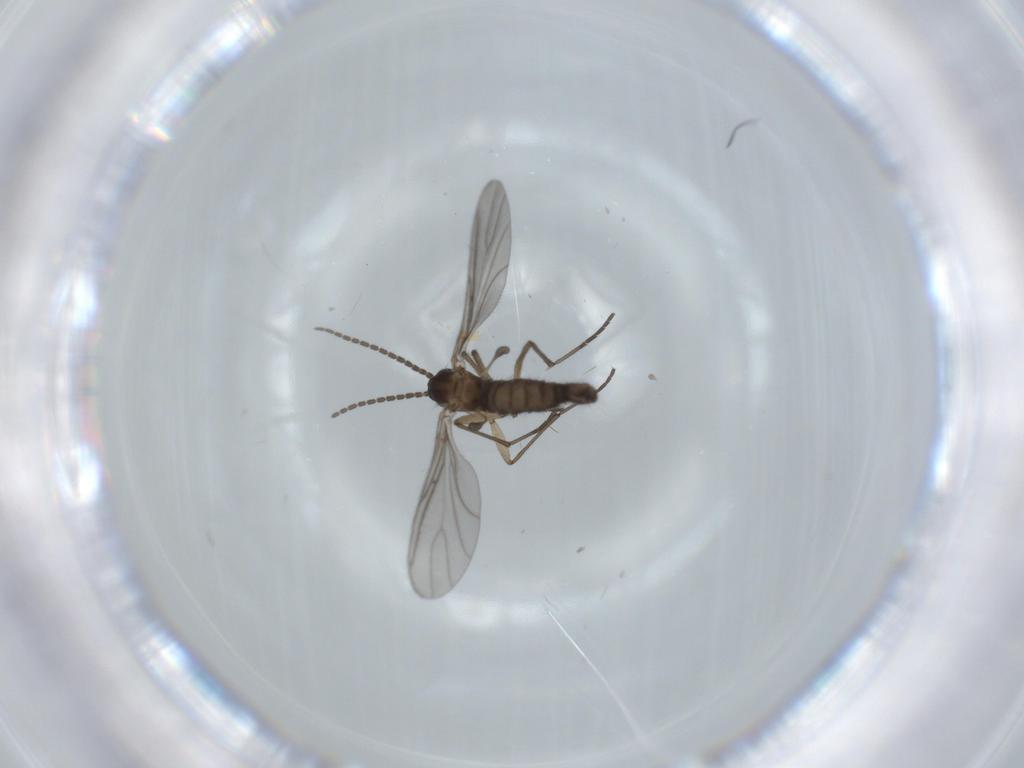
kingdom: Animalia
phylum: Arthropoda
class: Insecta
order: Diptera
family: Sciaridae
